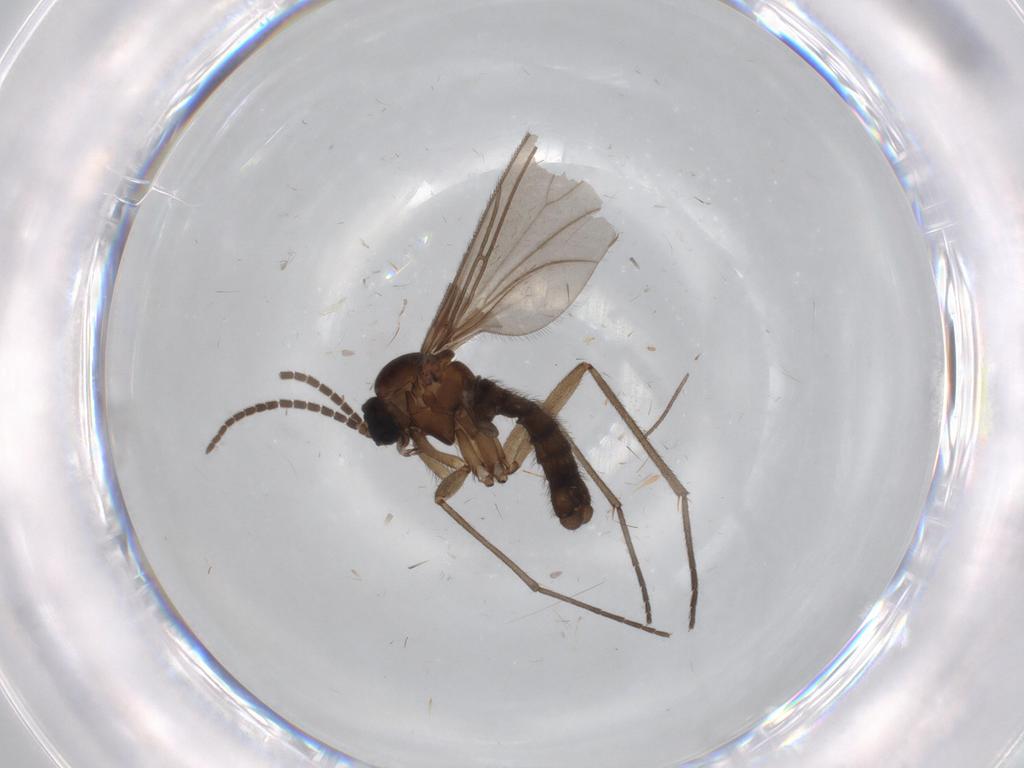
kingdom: Animalia
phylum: Arthropoda
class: Insecta
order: Diptera
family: Sciaridae
